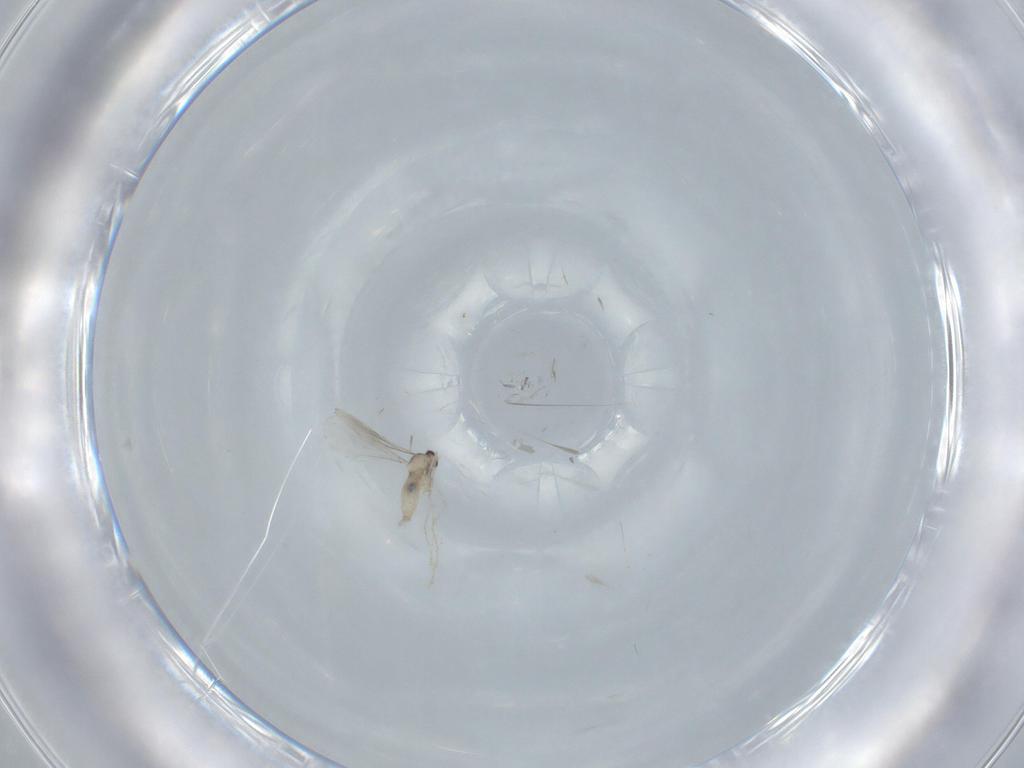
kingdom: Animalia
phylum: Arthropoda
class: Insecta
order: Diptera
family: Cecidomyiidae
